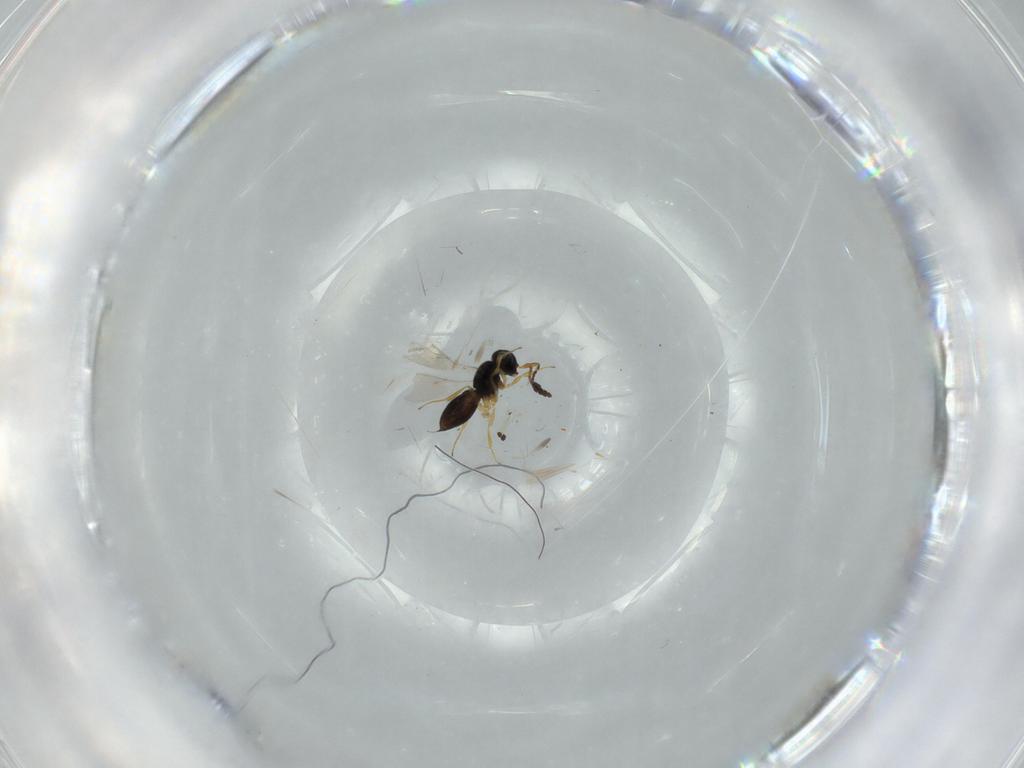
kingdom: Animalia
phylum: Arthropoda
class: Insecta
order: Hymenoptera
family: Scelionidae
